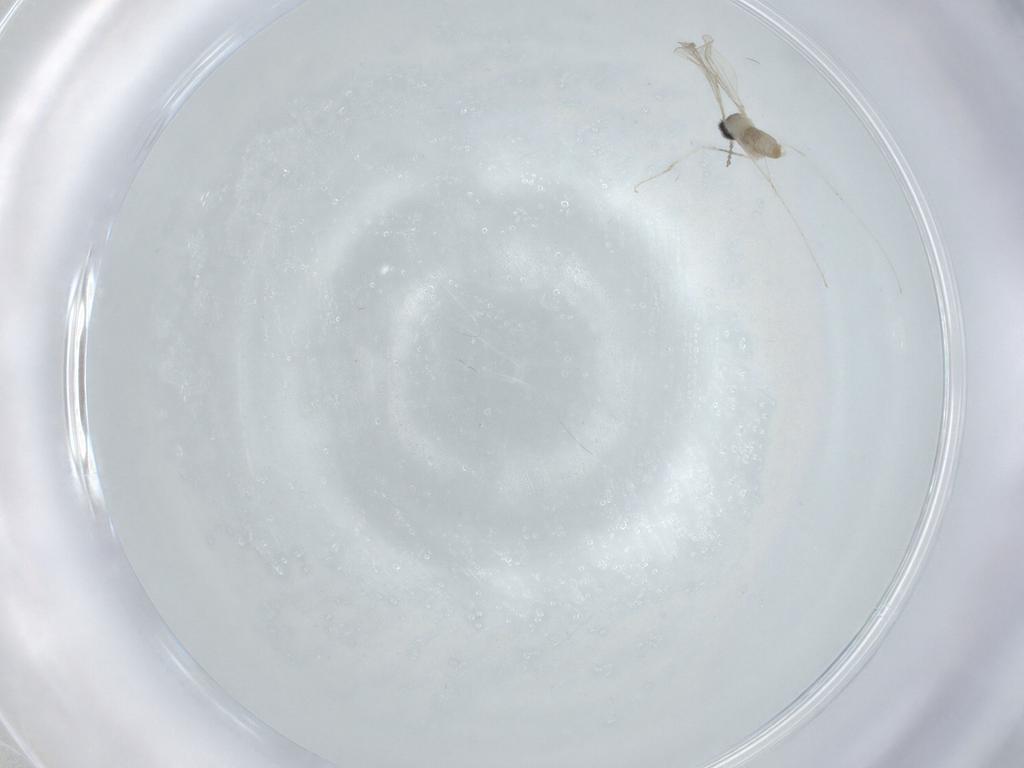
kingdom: Animalia
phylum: Arthropoda
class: Insecta
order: Diptera
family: Cecidomyiidae
